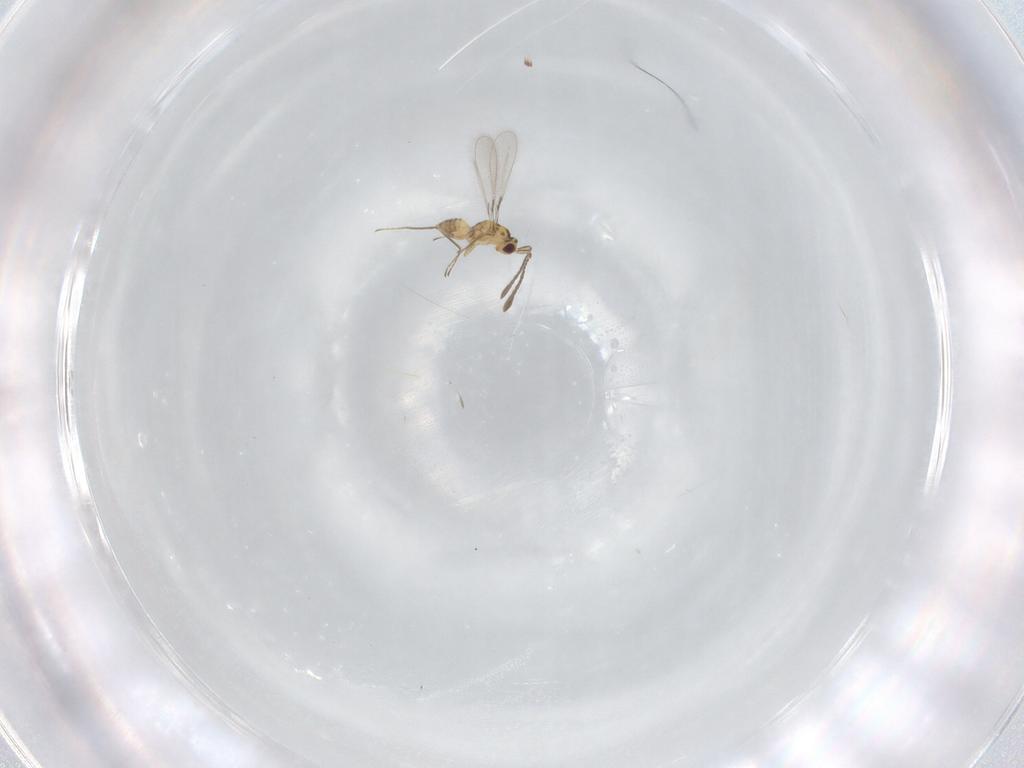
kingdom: Animalia
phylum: Arthropoda
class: Insecta
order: Hymenoptera
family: Mymaridae
